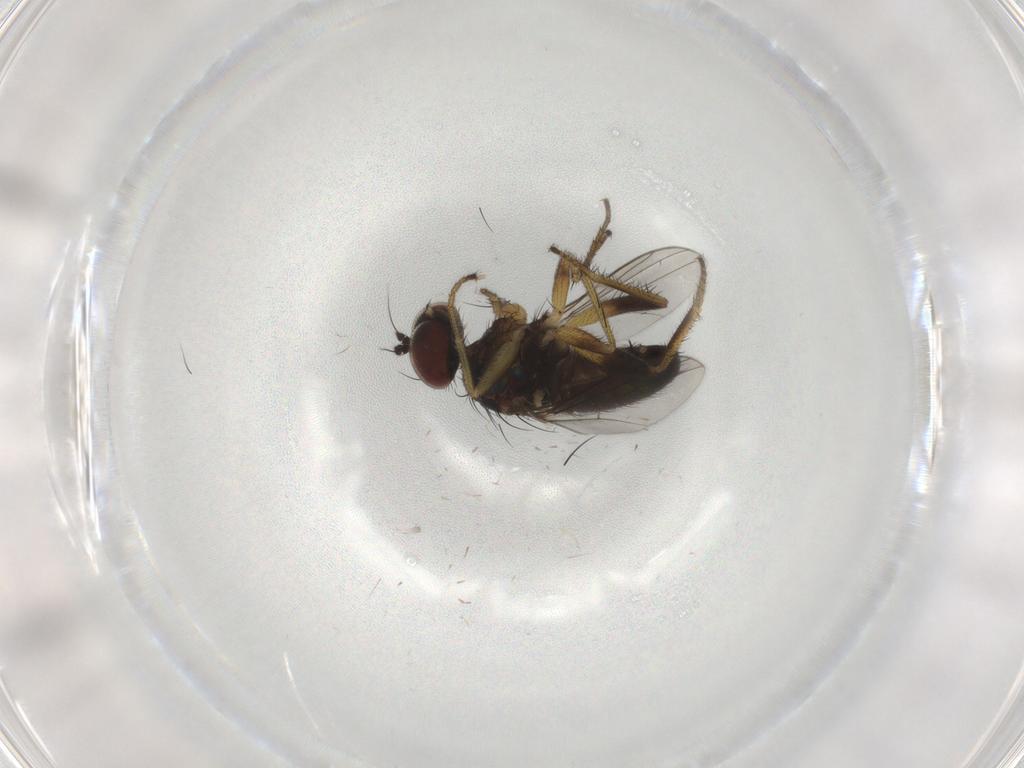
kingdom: Animalia
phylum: Arthropoda
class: Insecta
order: Diptera
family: Dolichopodidae
